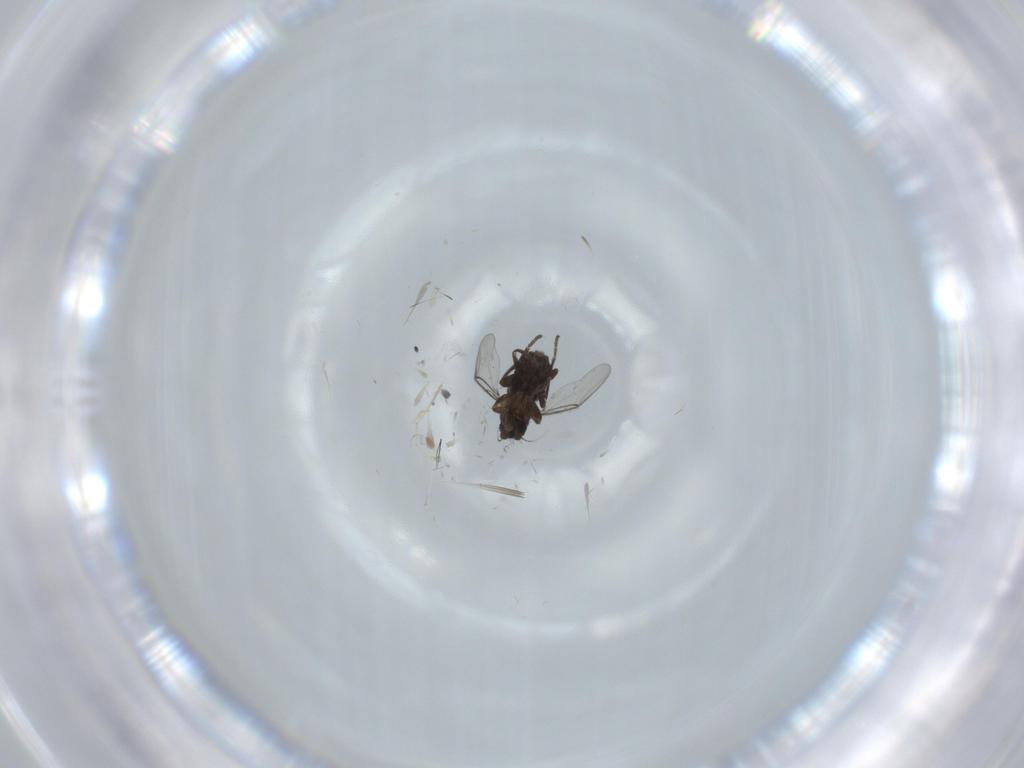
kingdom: Animalia
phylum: Arthropoda
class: Insecta
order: Diptera
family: Phoridae
